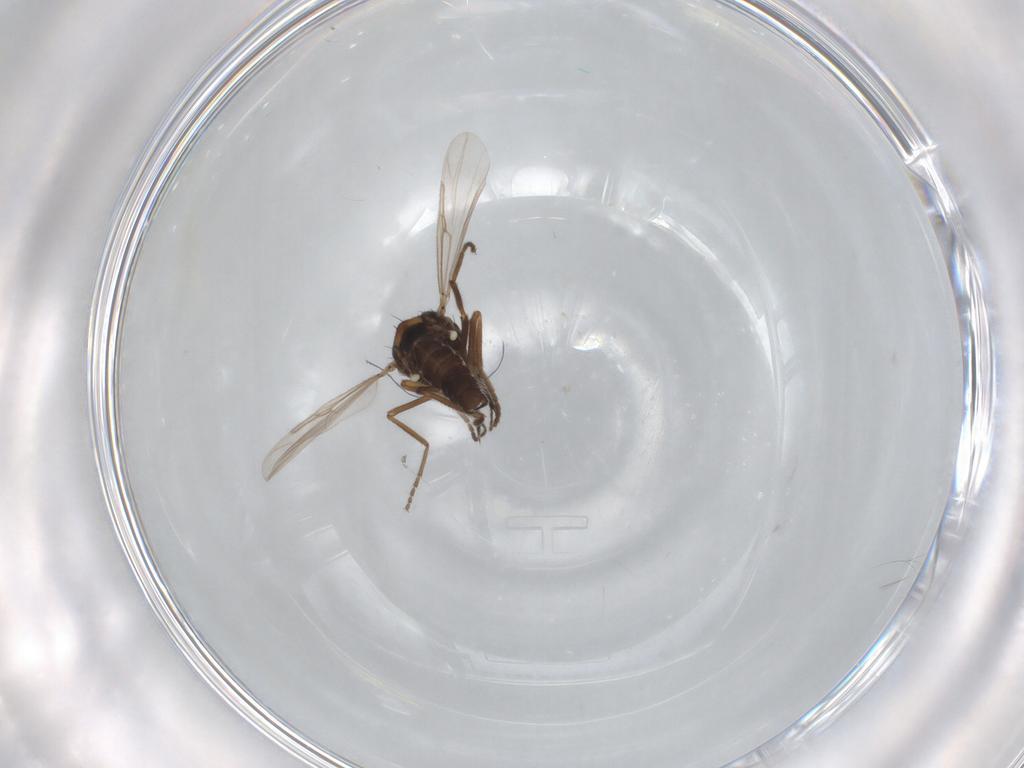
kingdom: Animalia
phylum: Arthropoda
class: Insecta
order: Diptera
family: Ceratopogonidae
